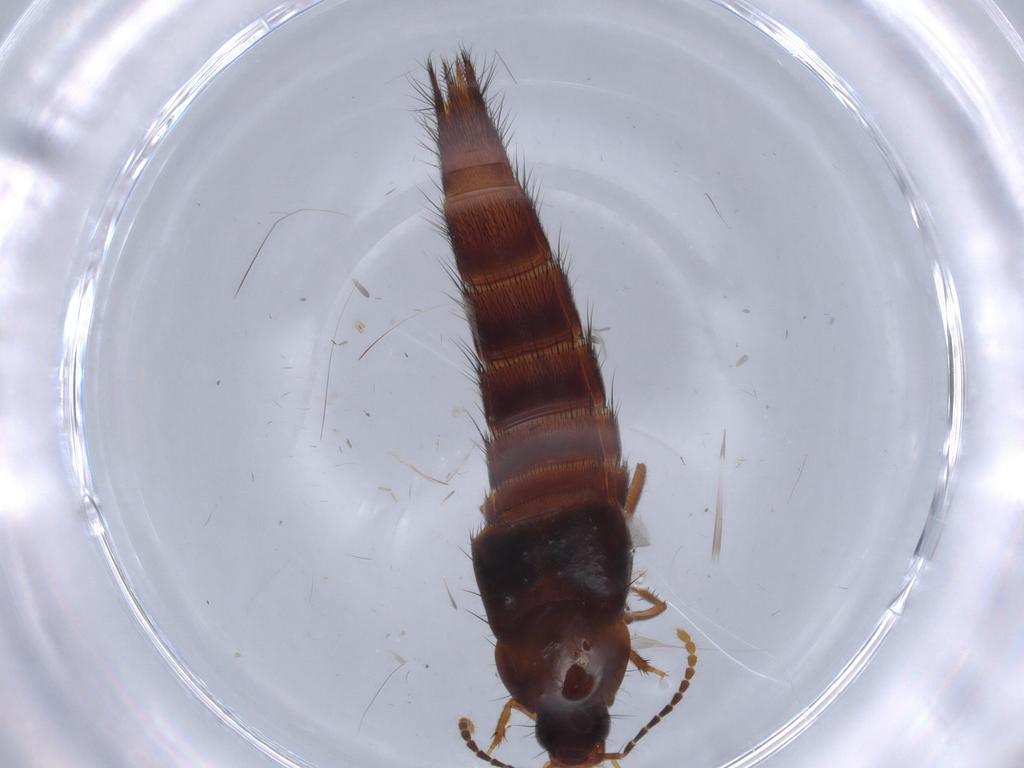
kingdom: Animalia
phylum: Arthropoda
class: Insecta
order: Coleoptera
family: Staphylinidae
